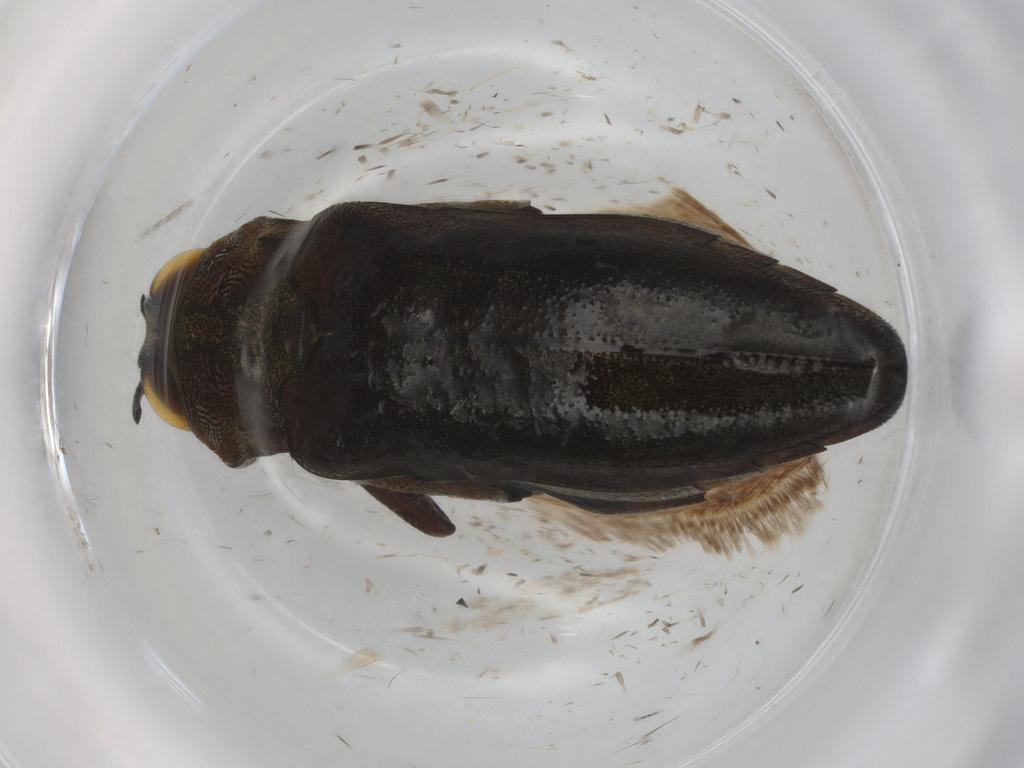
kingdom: Animalia
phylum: Arthropoda
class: Insecta
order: Coleoptera
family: Buprestidae
